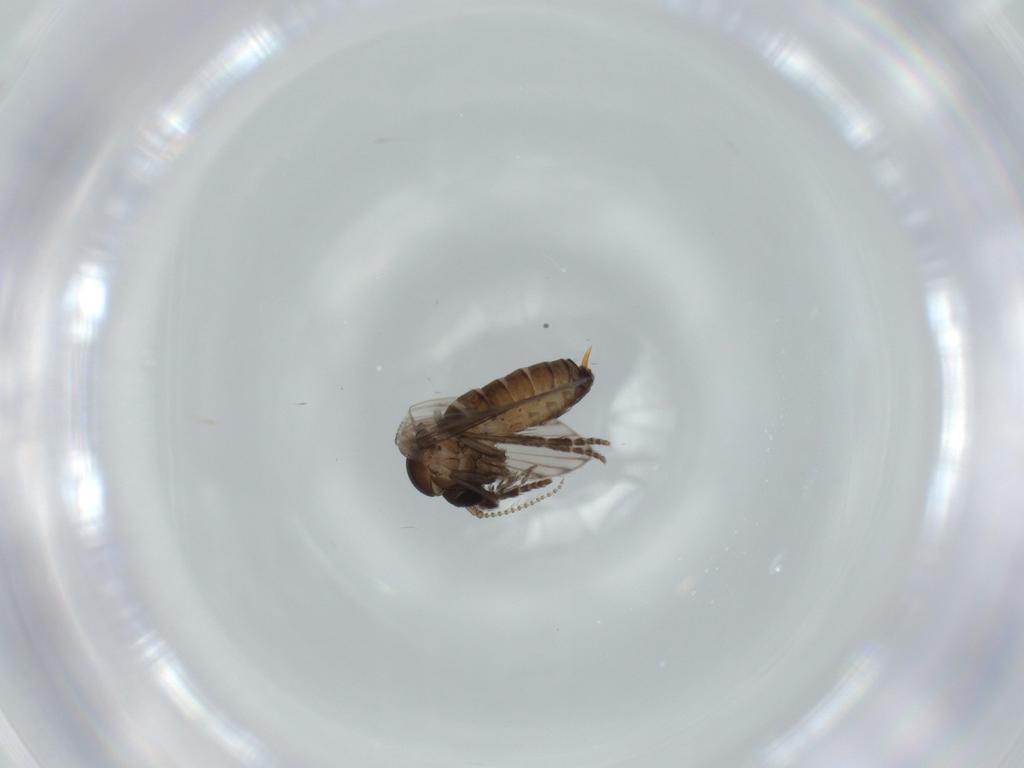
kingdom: Animalia
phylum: Arthropoda
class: Insecta
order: Diptera
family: Psychodidae
